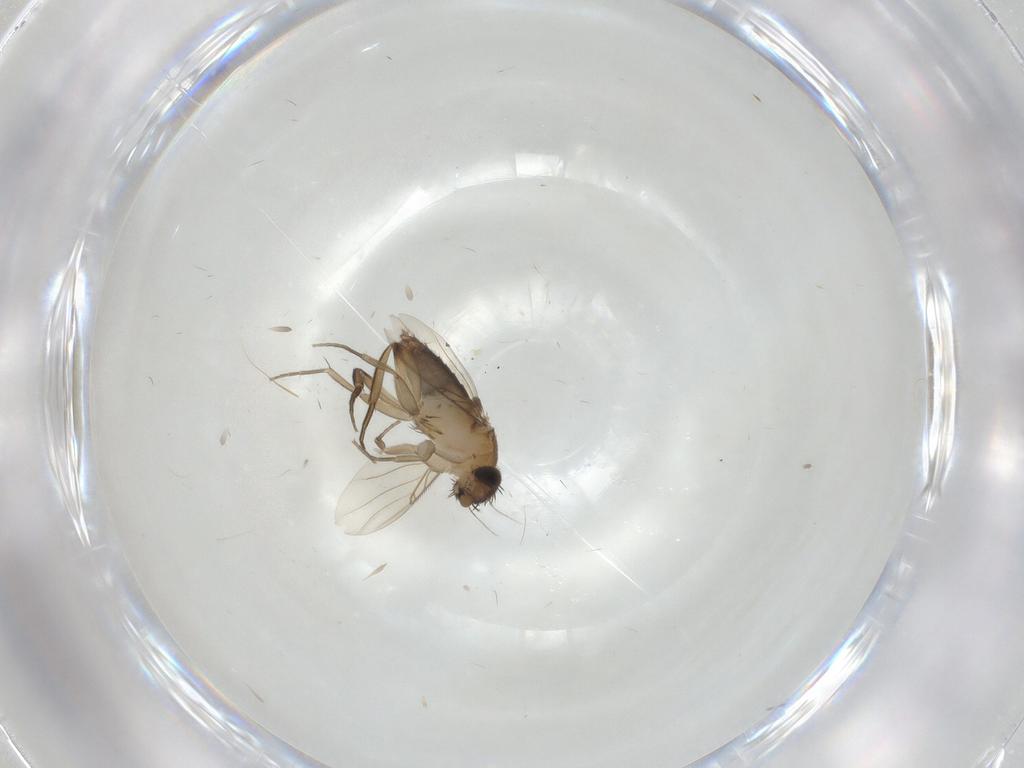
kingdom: Animalia
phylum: Arthropoda
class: Insecta
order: Diptera
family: Phoridae
